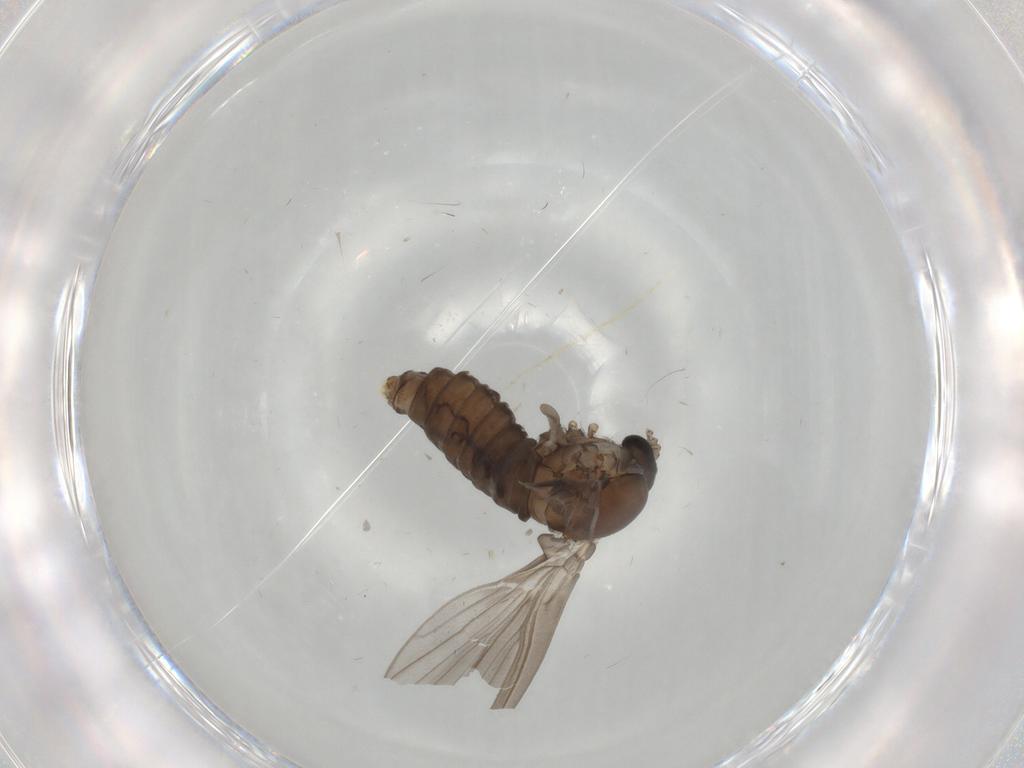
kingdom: Animalia
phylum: Arthropoda
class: Insecta
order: Diptera
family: Psychodidae
